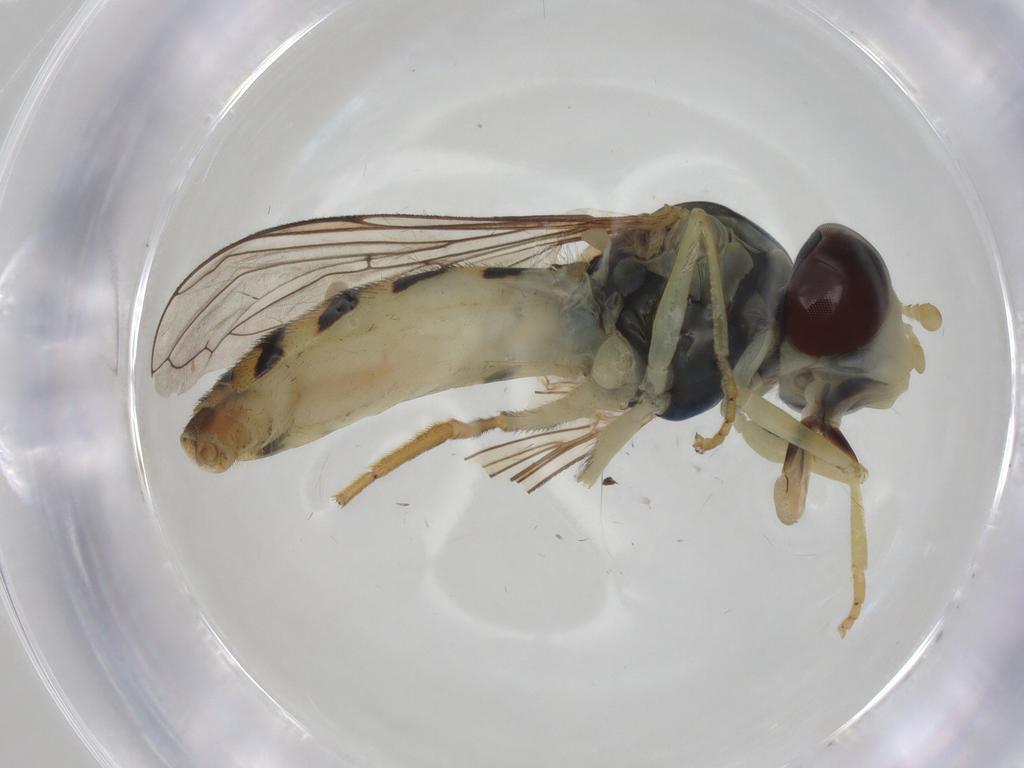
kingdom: Animalia
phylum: Arthropoda
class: Insecta
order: Diptera
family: Syrphidae
